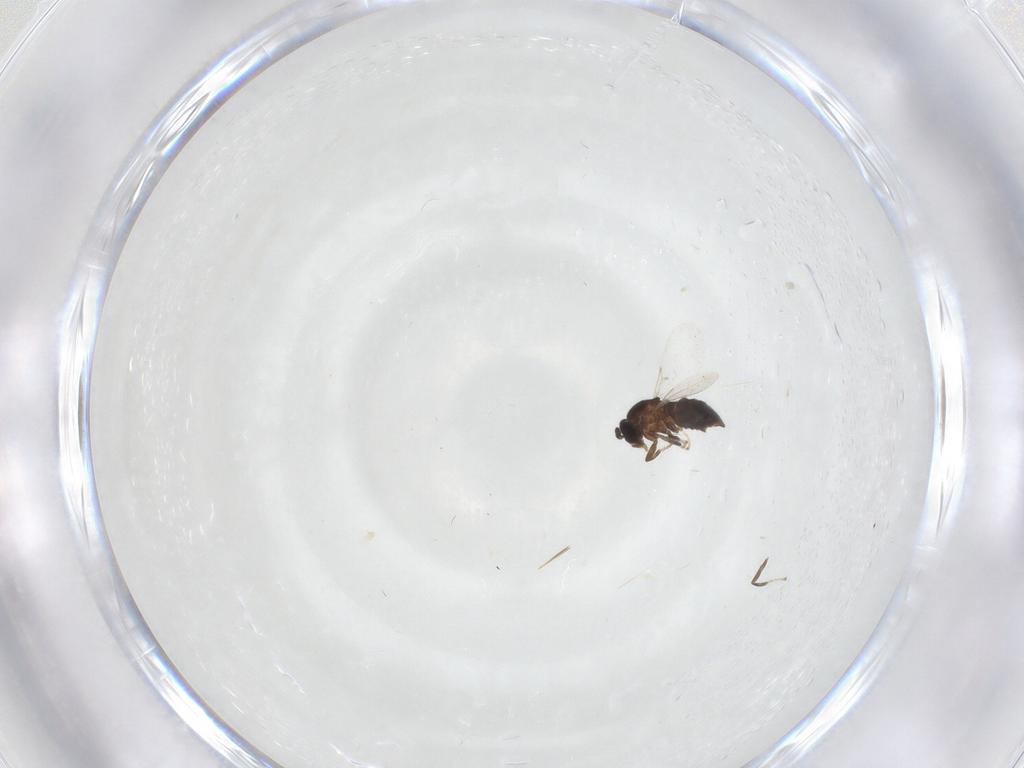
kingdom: Animalia
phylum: Arthropoda
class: Insecta
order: Diptera
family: Scatopsidae
